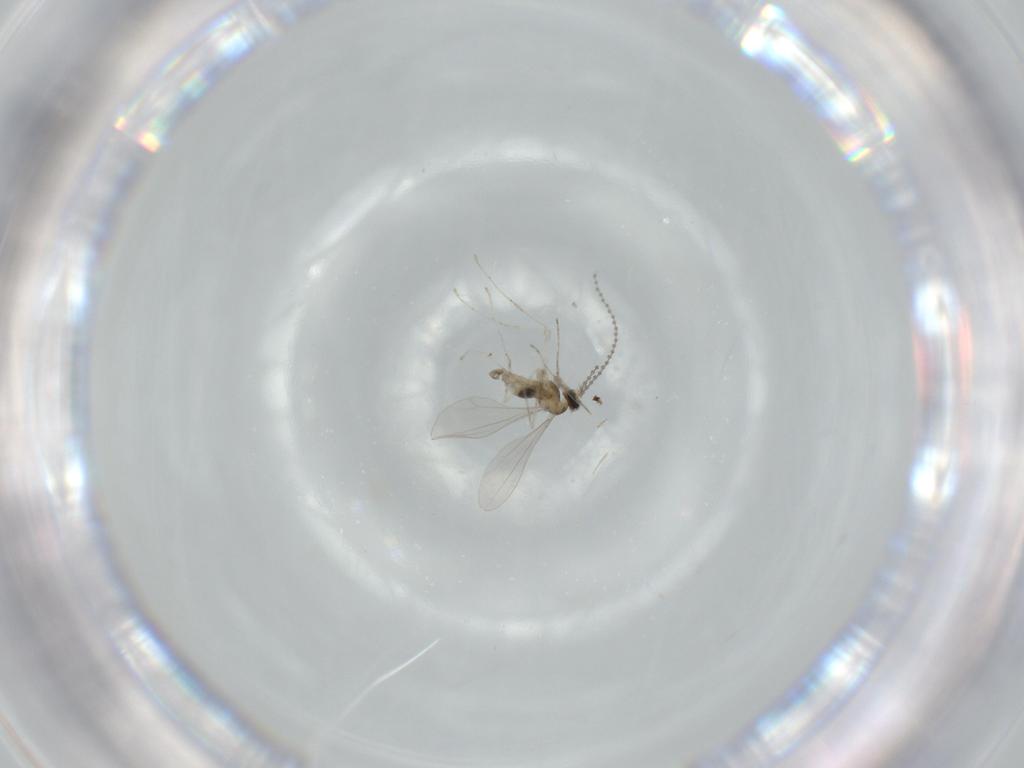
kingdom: Animalia
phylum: Arthropoda
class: Insecta
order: Diptera
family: Cecidomyiidae
